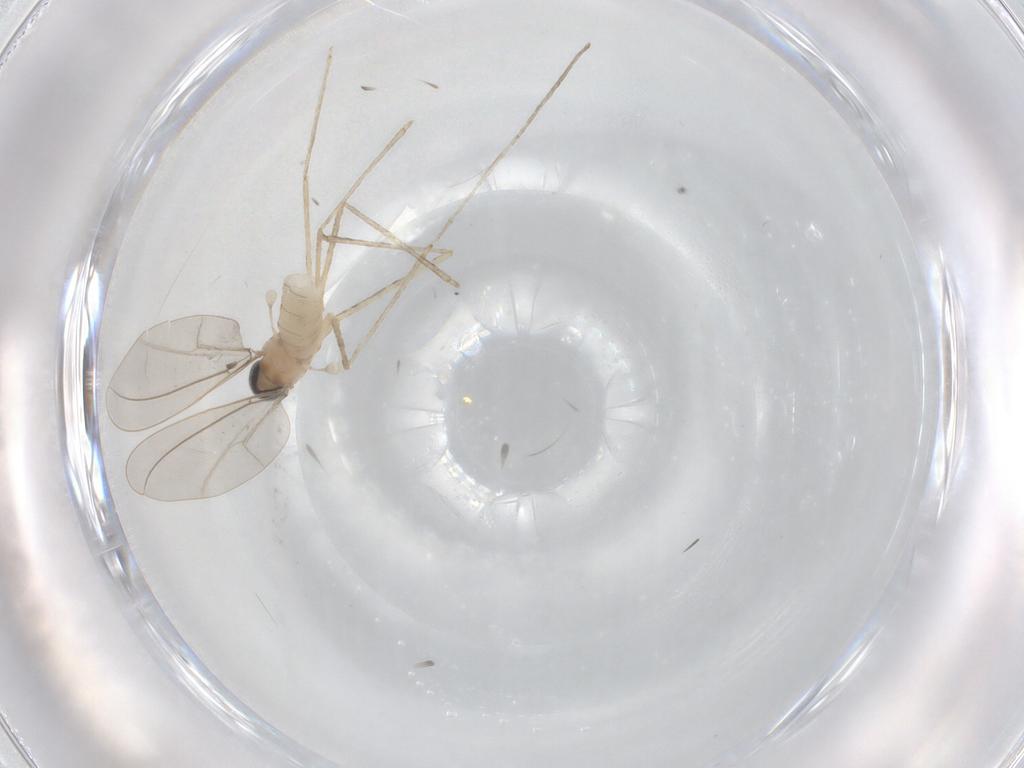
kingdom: Animalia
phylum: Arthropoda
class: Insecta
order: Diptera
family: Cecidomyiidae
